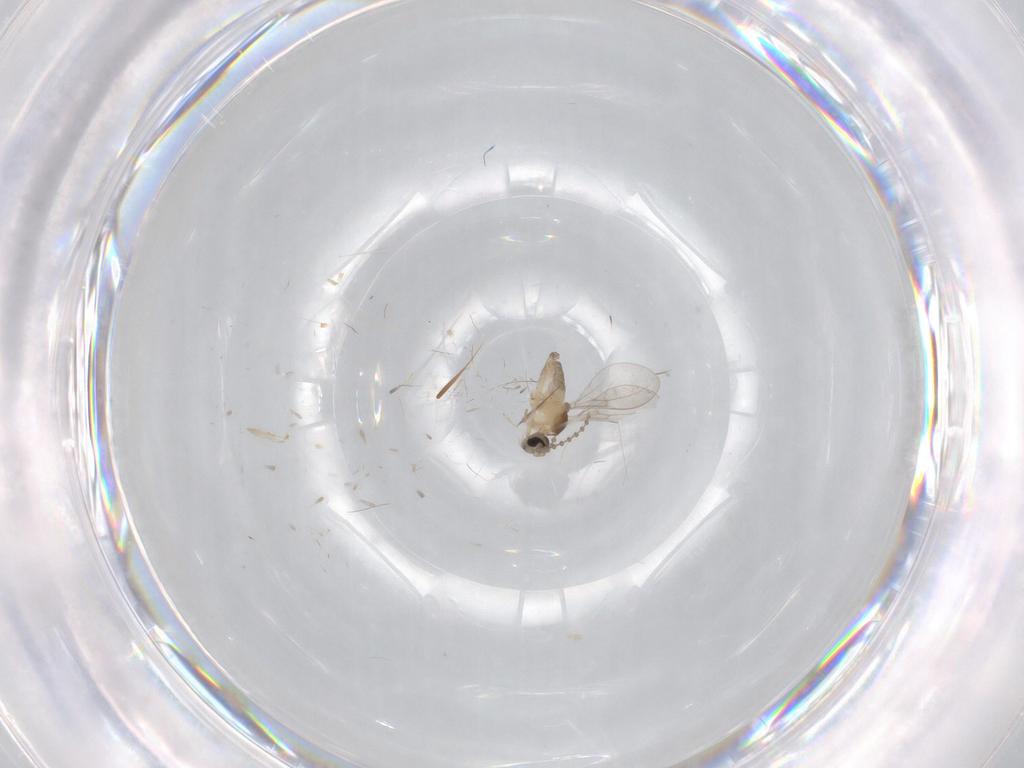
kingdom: Animalia
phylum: Arthropoda
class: Insecta
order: Diptera
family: Cecidomyiidae
